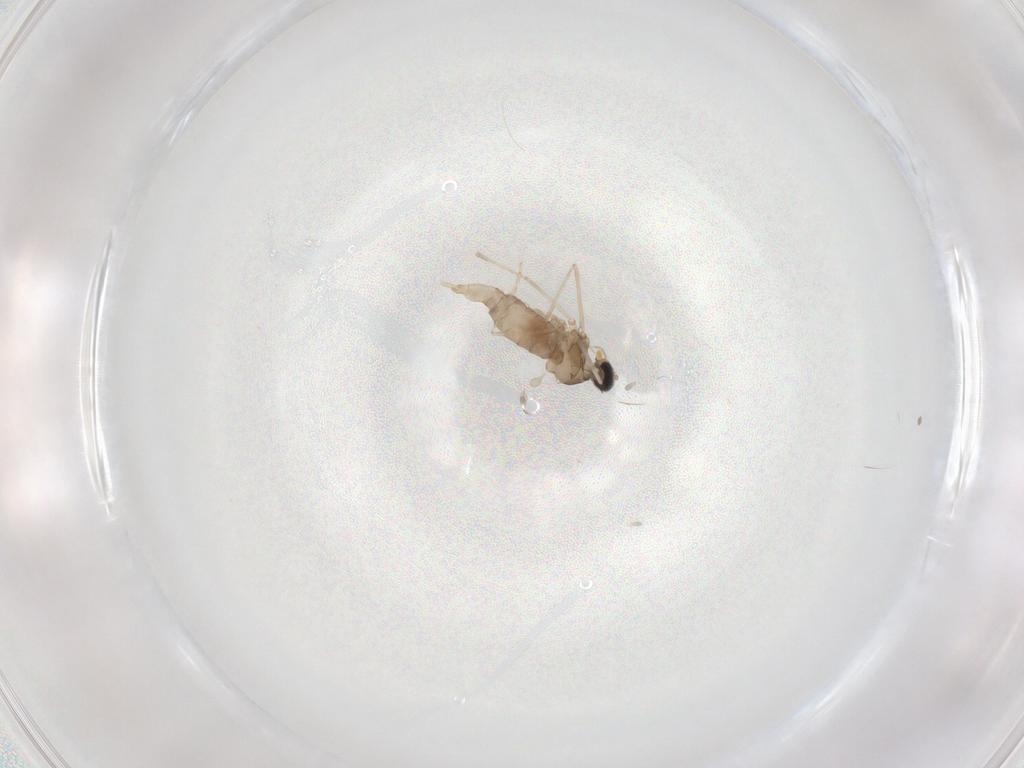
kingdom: Animalia
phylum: Arthropoda
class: Insecta
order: Diptera
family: Cecidomyiidae
